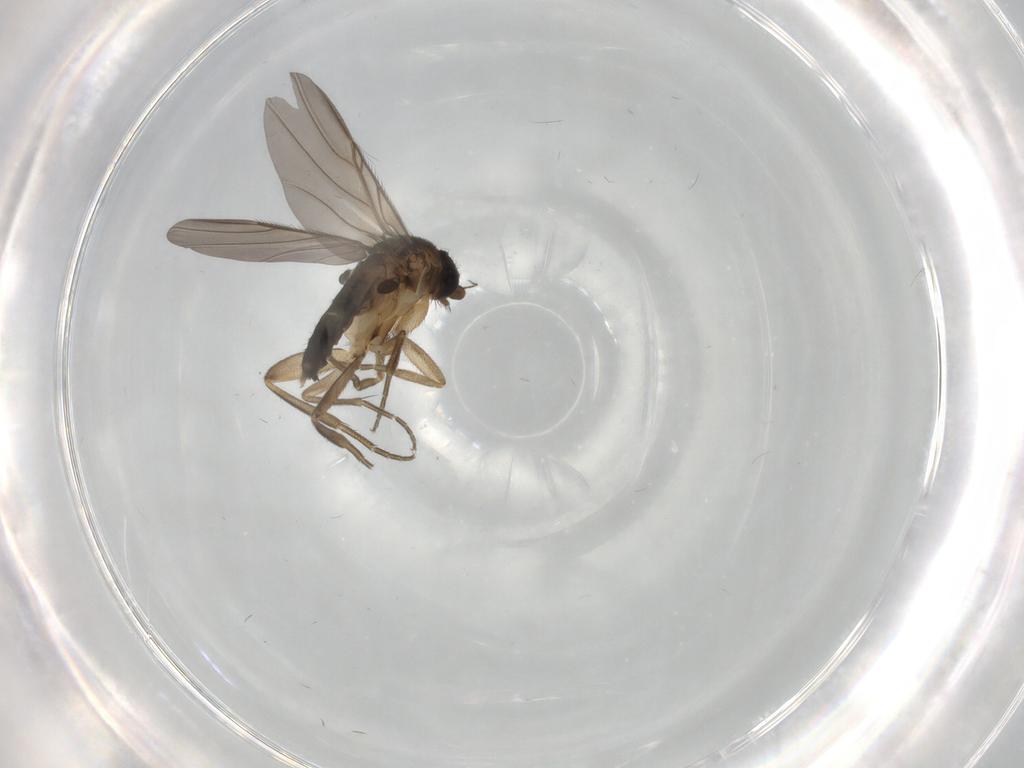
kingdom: Animalia
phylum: Arthropoda
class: Insecta
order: Diptera
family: Phoridae
